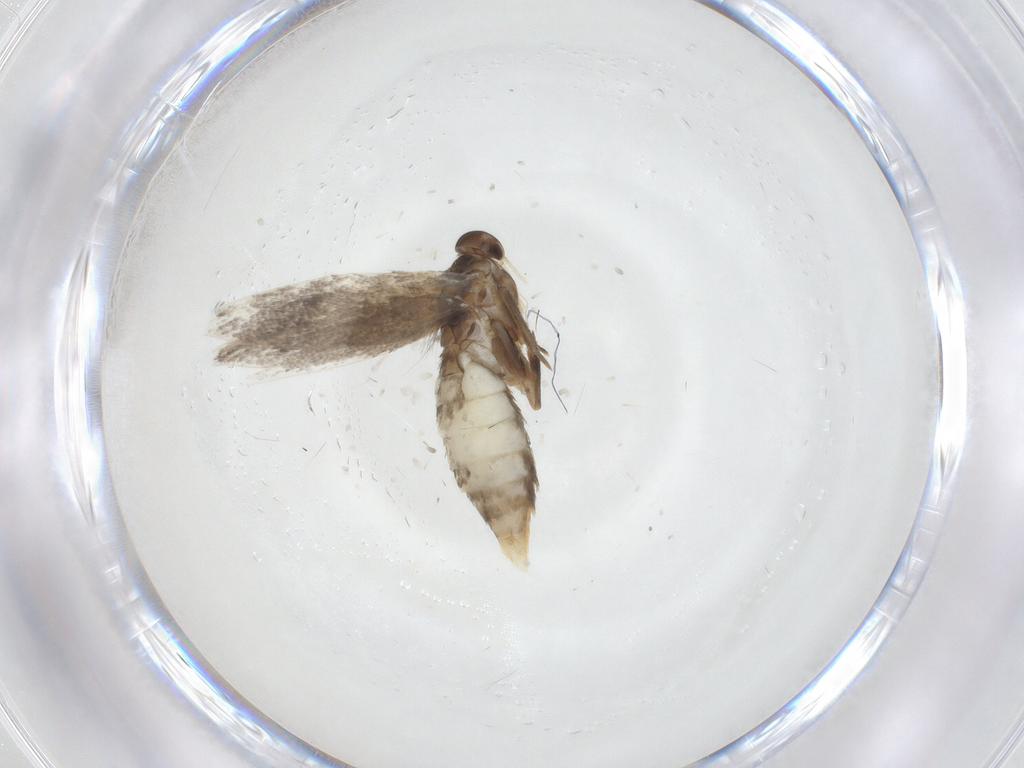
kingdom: Animalia
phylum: Arthropoda
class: Insecta
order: Lepidoptera
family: Elachistidae
